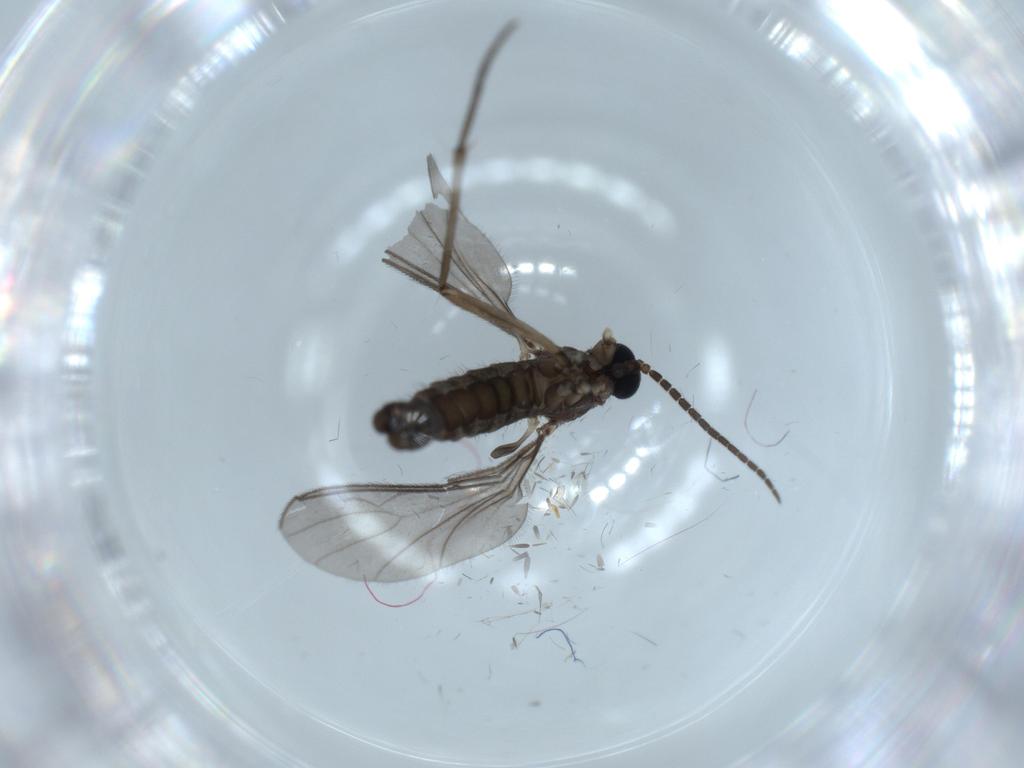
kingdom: Animalia
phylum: Arthropoda
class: Insecta
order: Diptera
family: Sciaridae
